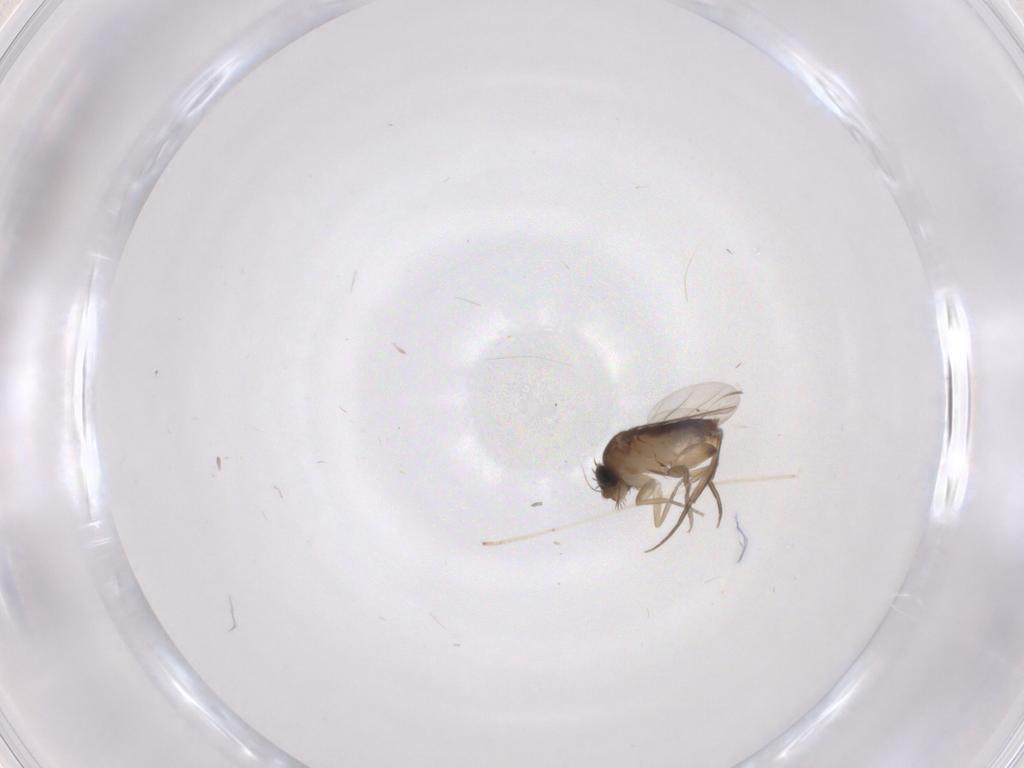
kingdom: Animalia
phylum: Arthropoda
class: Insecta
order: Diptera
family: Phoridae
